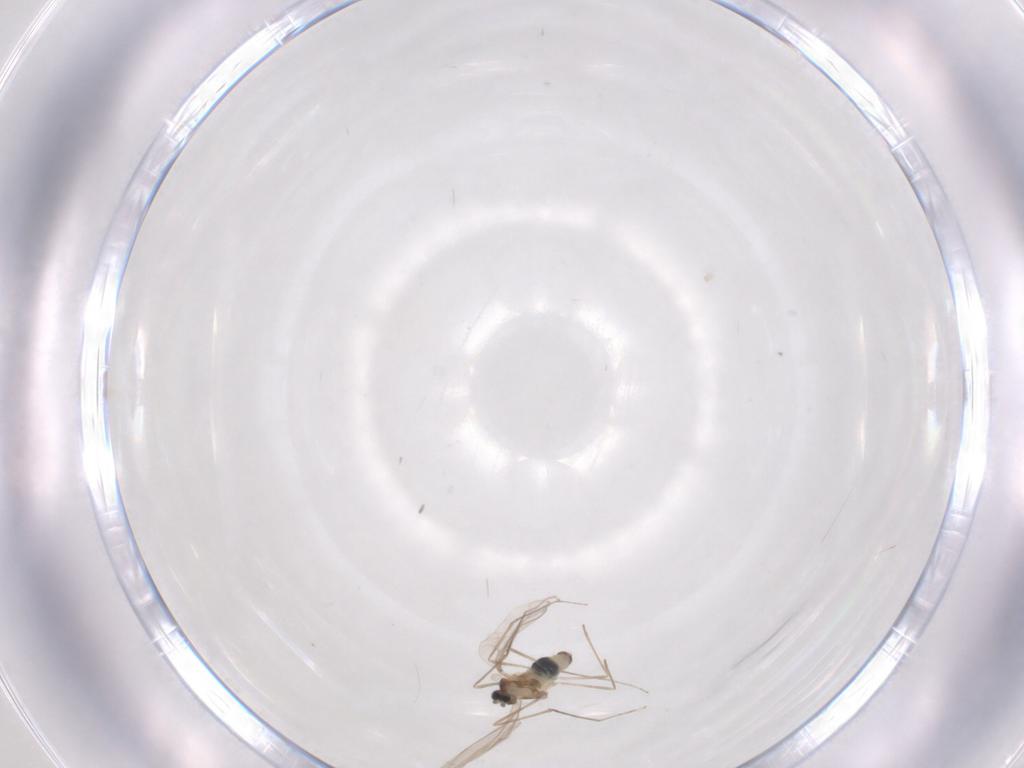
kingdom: Animalia
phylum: Arthropoda
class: Insecta
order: Diptera
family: Cecidomyiidae
